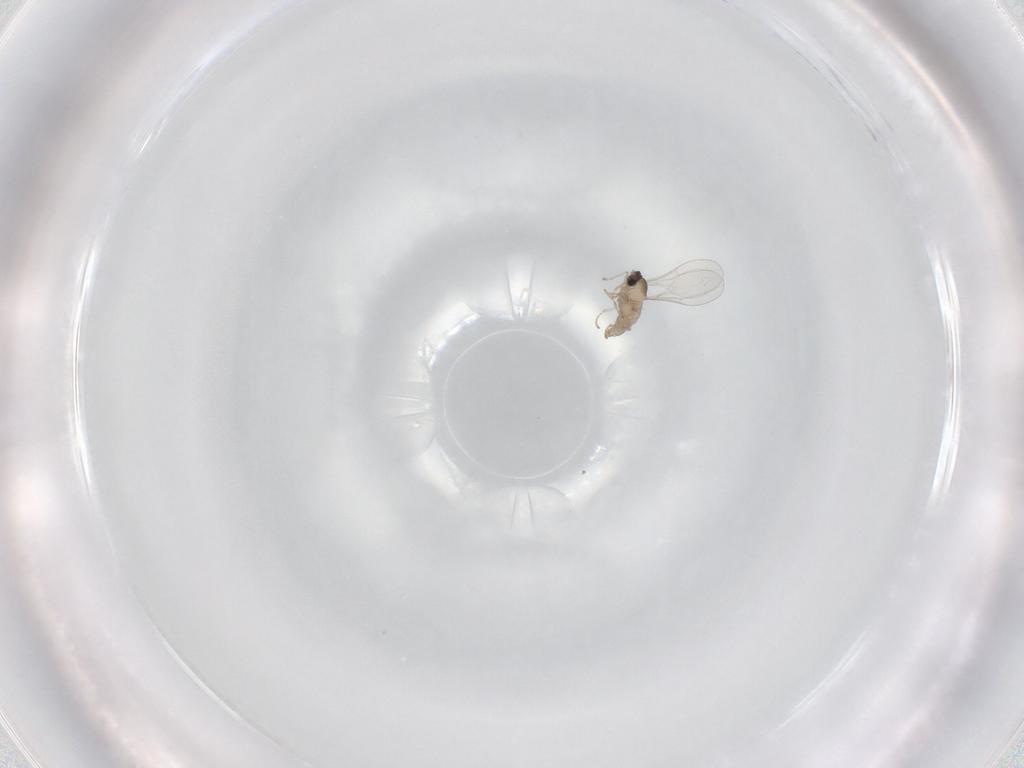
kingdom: Animalia
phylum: Arthropoda
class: Insecta
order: Diptera
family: Cecidomyiidae
